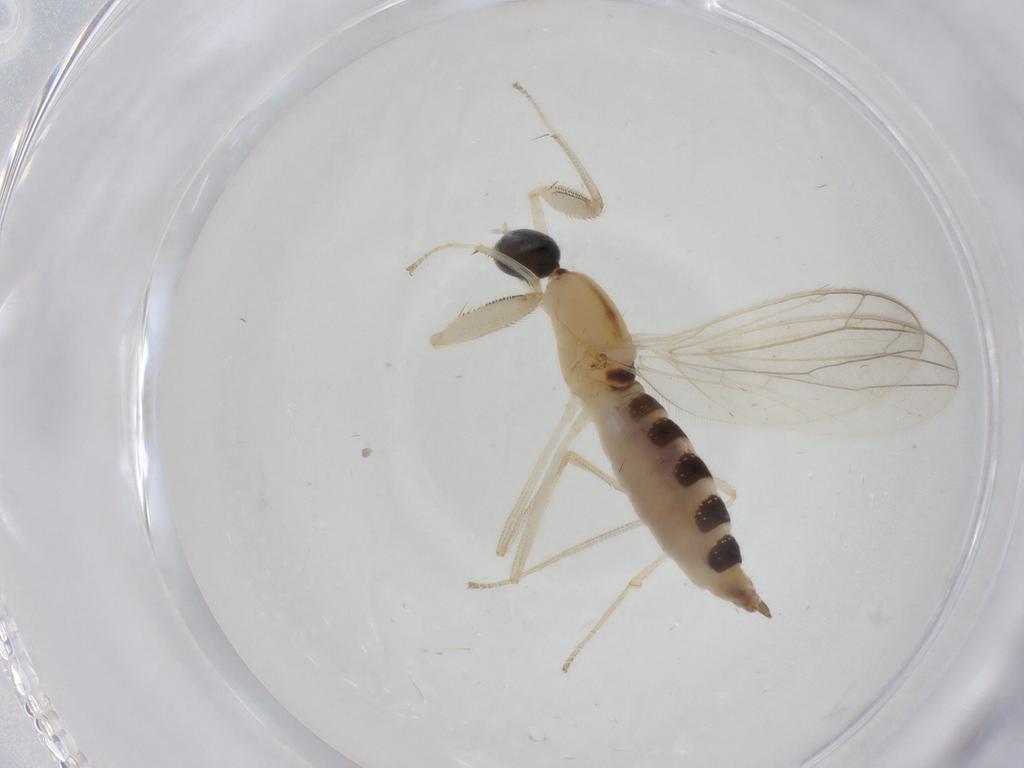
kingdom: Animalia
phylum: Arthropoda
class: Insecta
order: Diptera
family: Empididae
